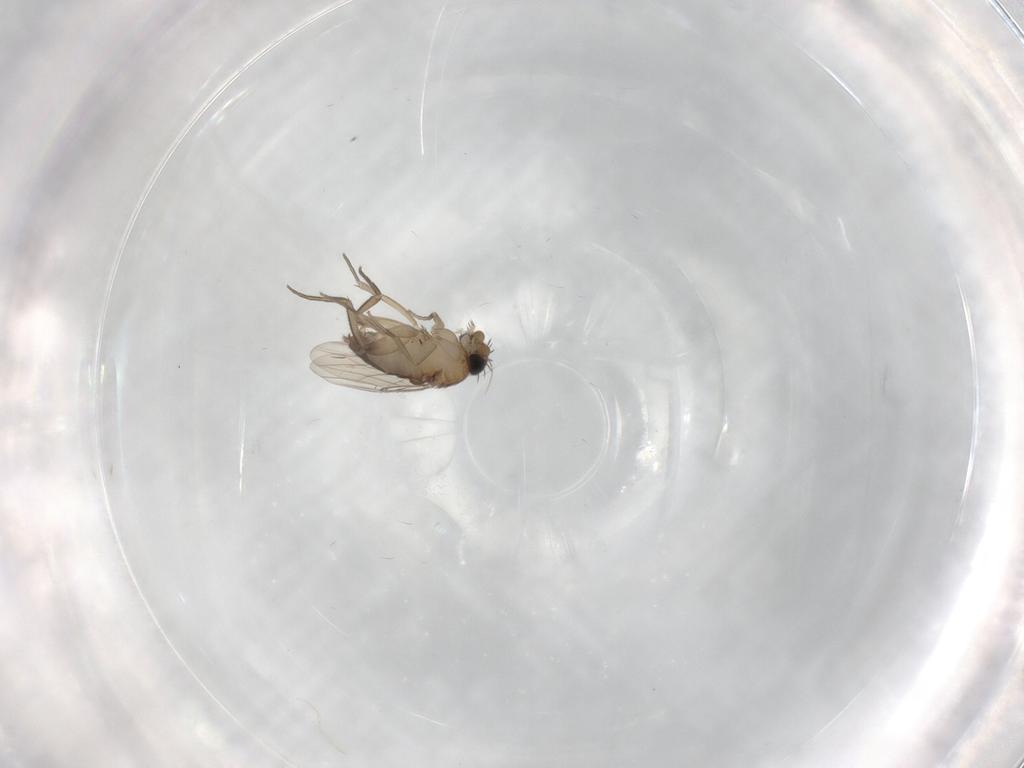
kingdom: Animalia
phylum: Arthropoda
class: Insecta
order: Diptera
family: Phoridae
